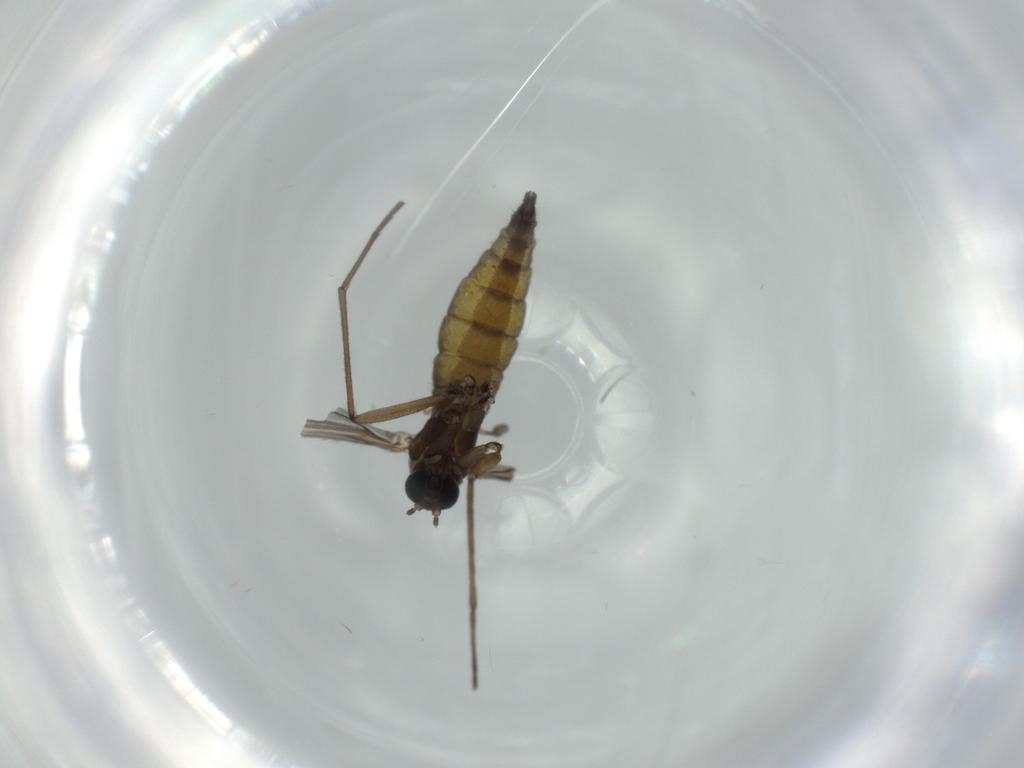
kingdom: Animalia
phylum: Arthropoda
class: Insecta
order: Diptera
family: Sciaridae
